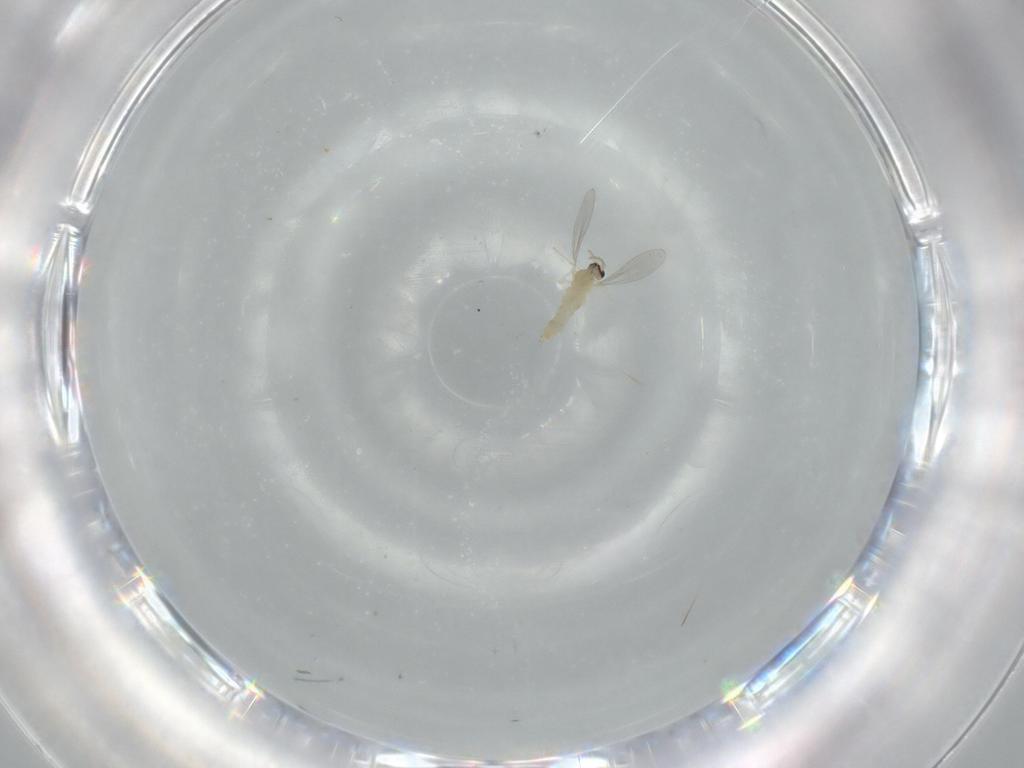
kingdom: Animalia
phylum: Arthropoda
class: Insecta
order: Diptera
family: Cecidomyiidae
